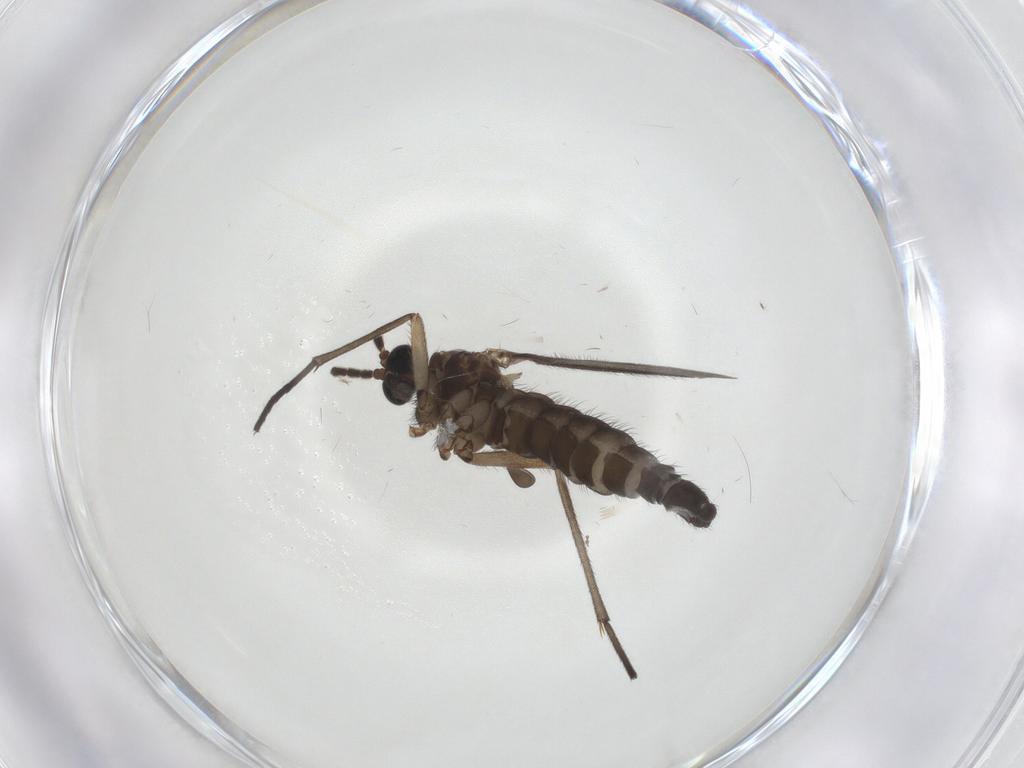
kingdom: Animalia
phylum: Arthropoda
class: Insecta
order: Diptera
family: Sciaridae
